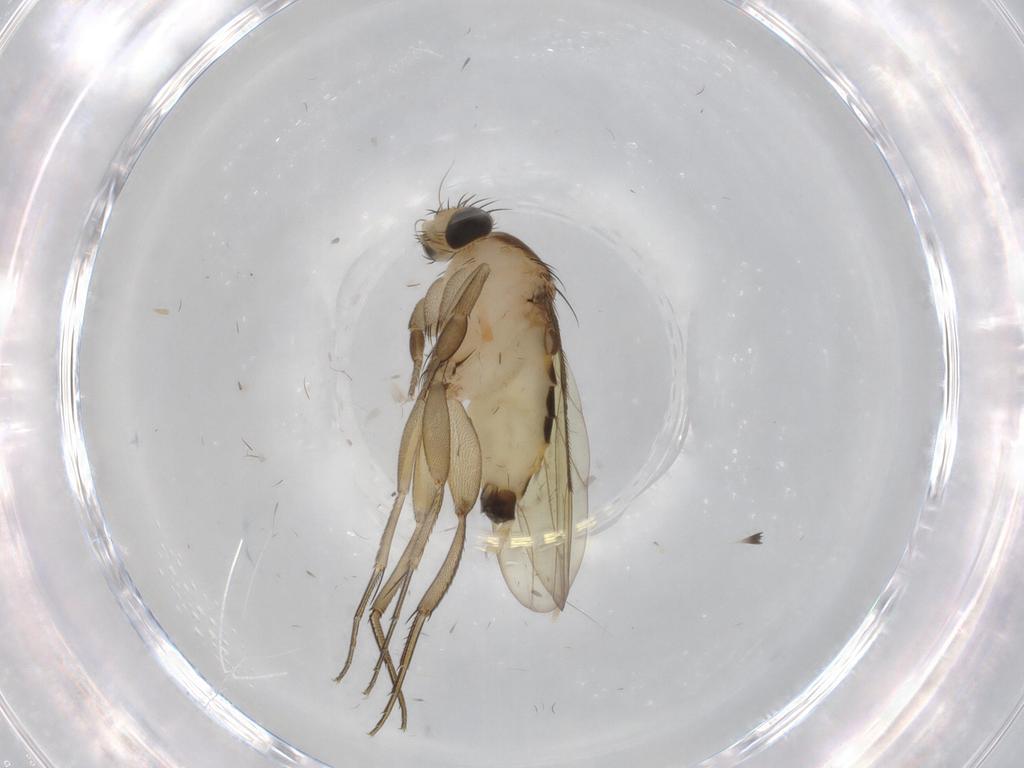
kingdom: Animalia
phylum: Arthropoda
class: Insecta
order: Diptera
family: Phoridae
